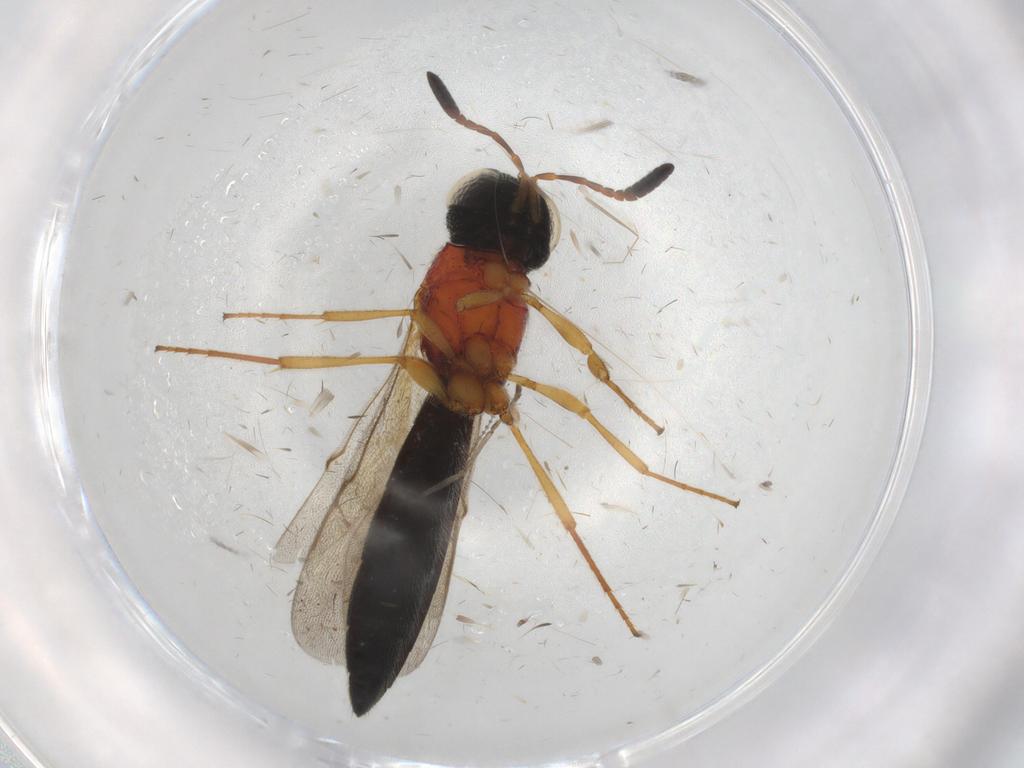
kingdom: Animalia
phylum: Arthropoda
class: Insecta
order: Hymenoptera
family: Scelionidae
